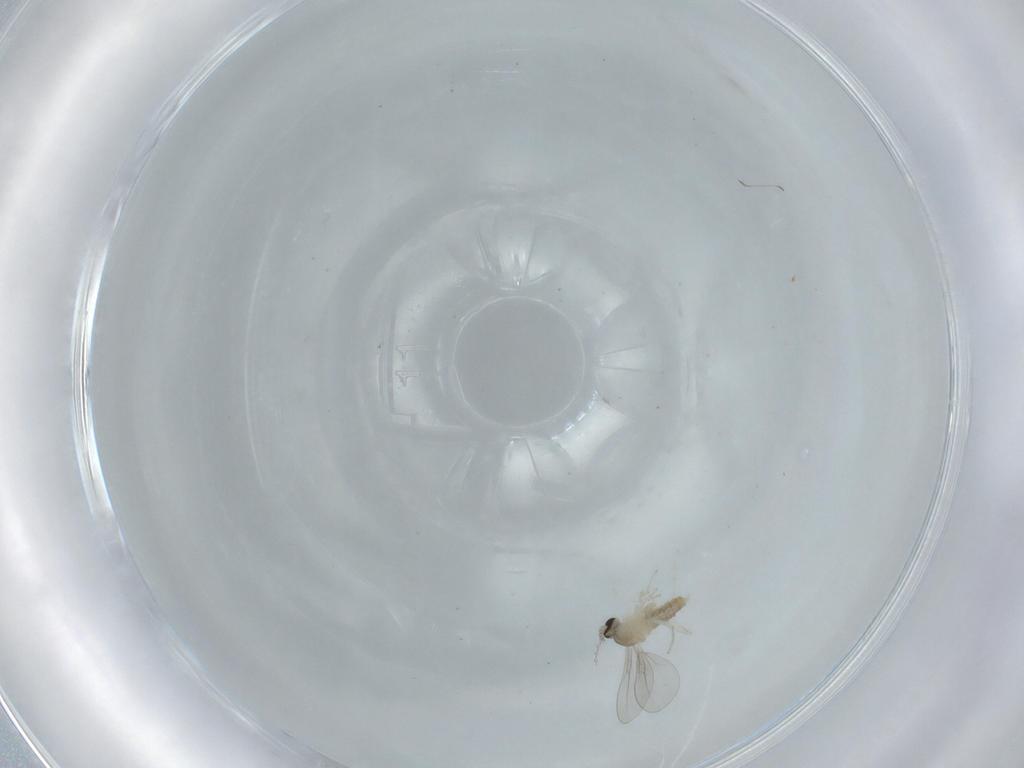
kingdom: Animalia
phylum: Arthropoda
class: Insecta
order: Diptera
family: Cecidomyiidae
